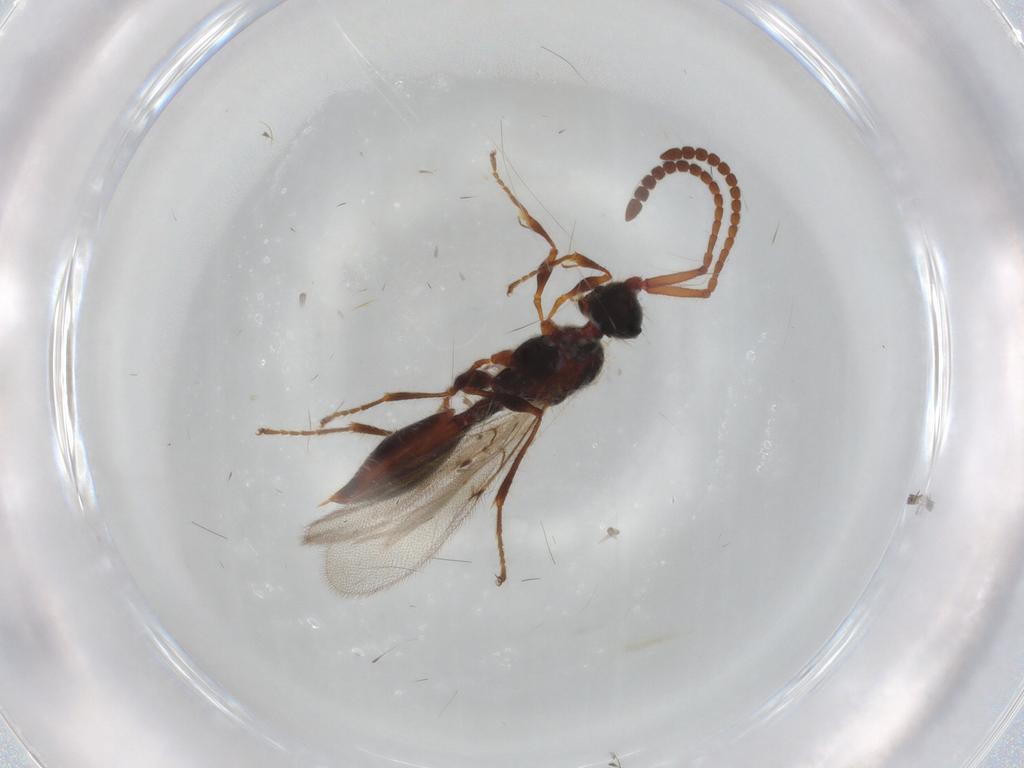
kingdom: Animalia
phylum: Arthropoda
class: Insecta
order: Hymenoptera
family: Diapriidae
